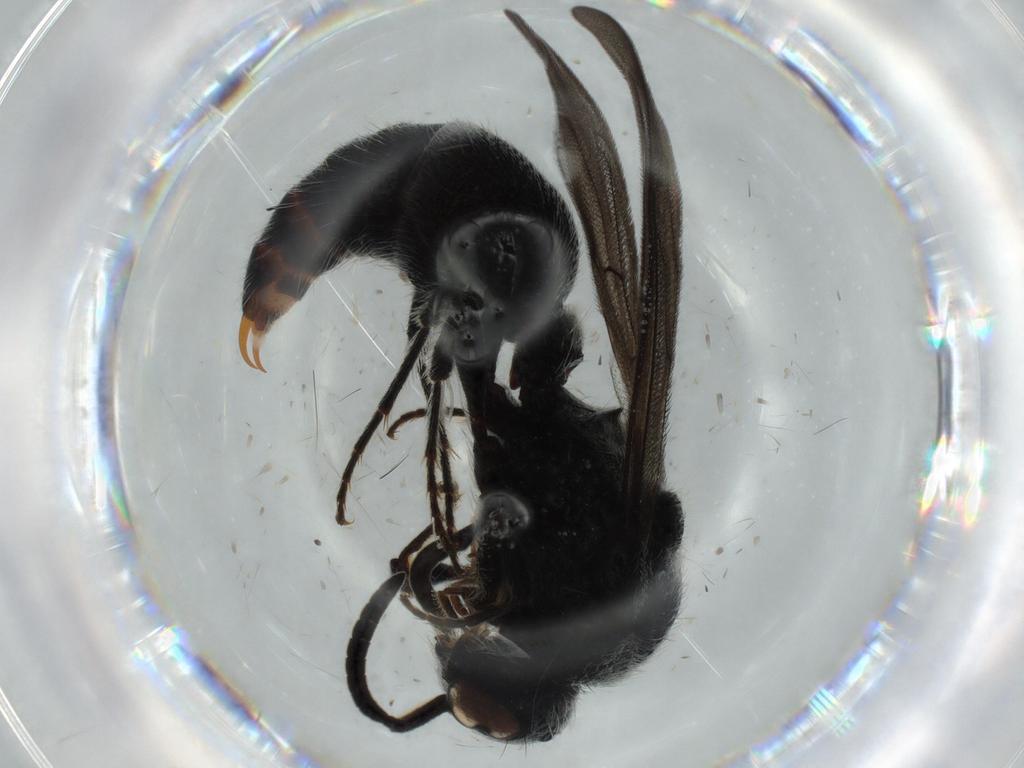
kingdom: Animalia
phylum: Arthropoda
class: Insecta
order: Hymenoptera
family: Crabronidae
